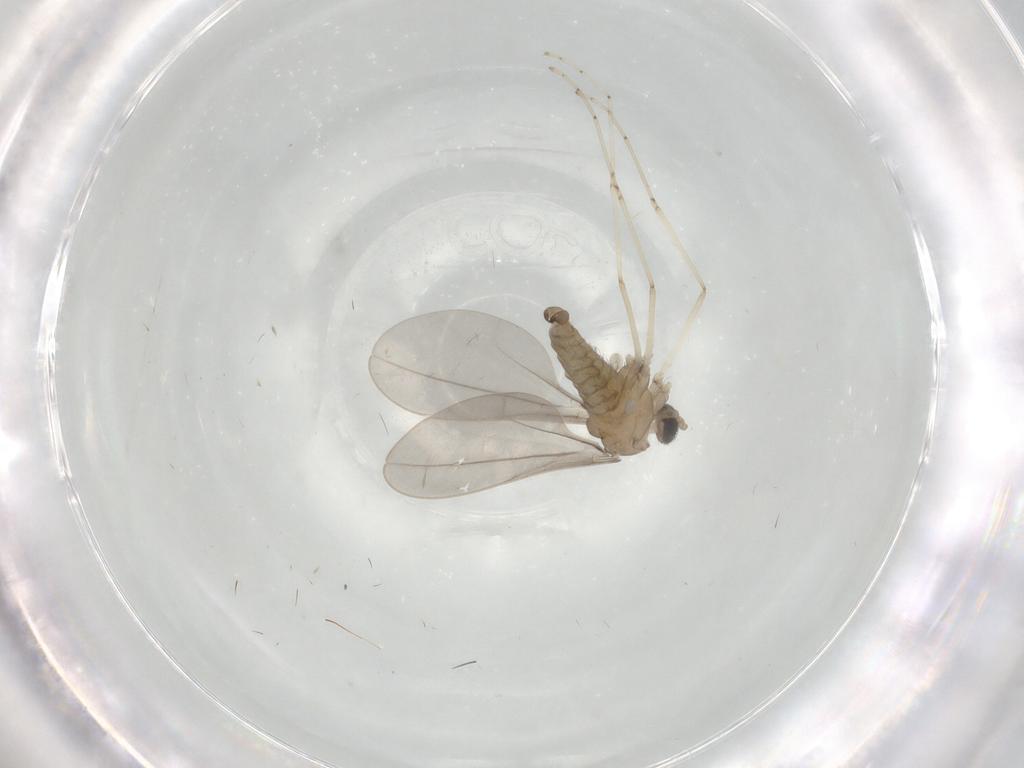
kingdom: Animalia
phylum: Arthropoda
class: Insecta
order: Diptera
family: Cecidomyiidae
